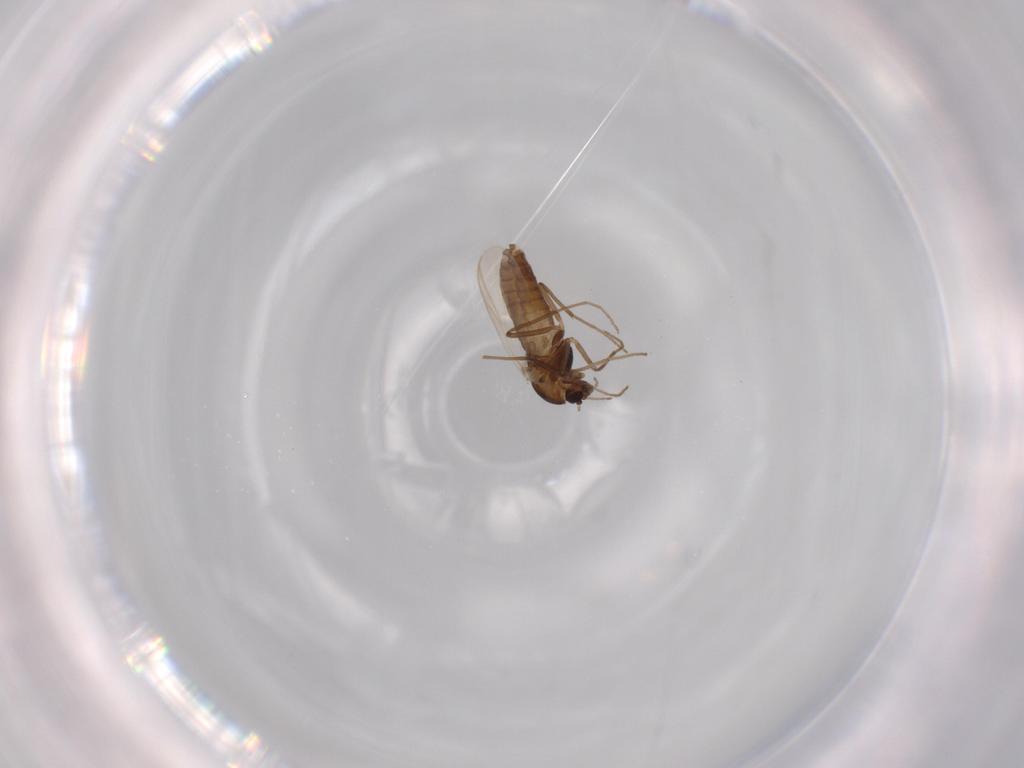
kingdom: Animalia
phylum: Arthropoda
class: Insecta
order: Diptera
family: Chironomidae
